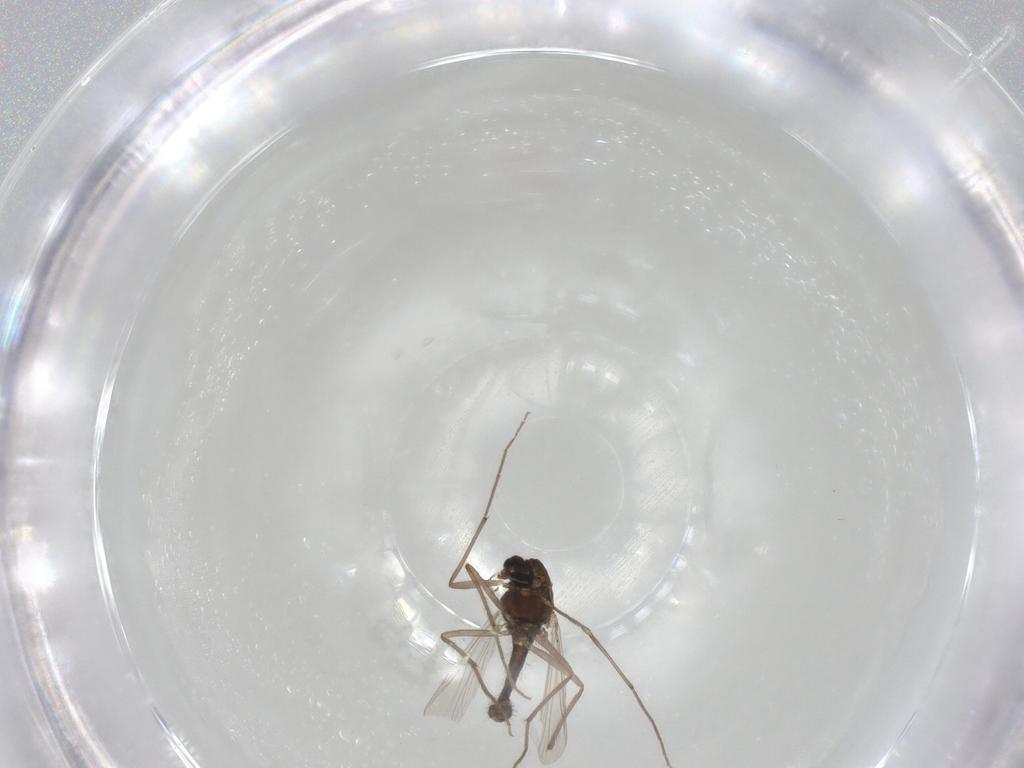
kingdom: Animalia
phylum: Arthropoda
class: Insecta
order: Diptera
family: Chironomidae
